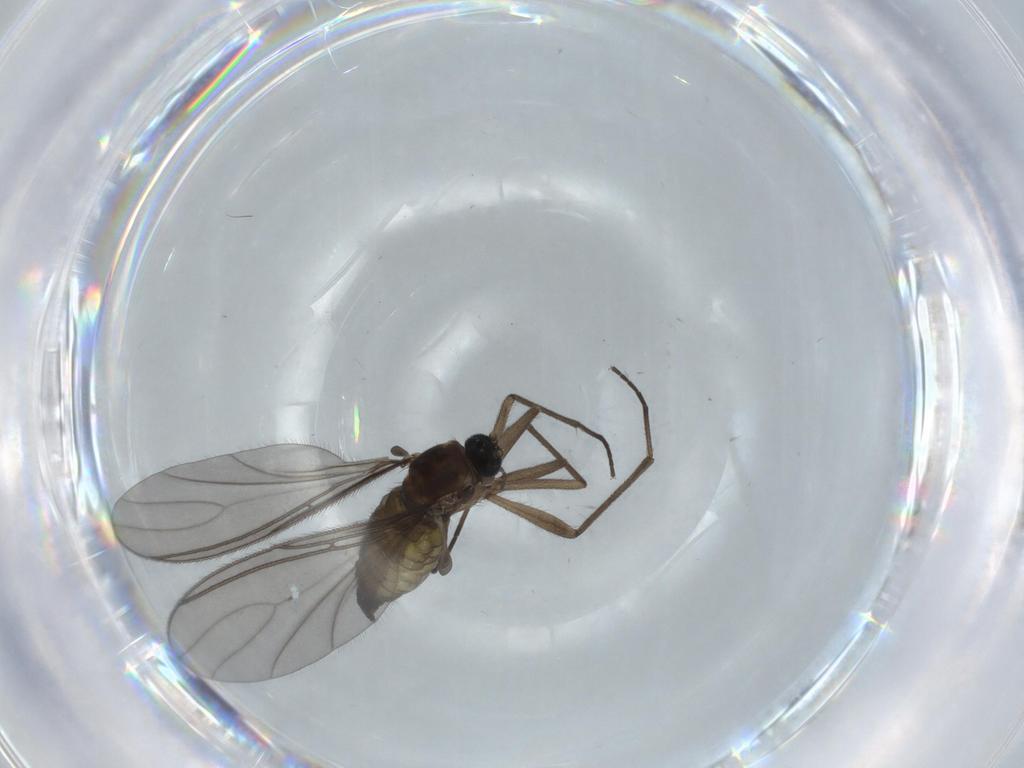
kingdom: Animalia
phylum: Arthropoda
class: Insecta
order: Diptera
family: Sciaridae
